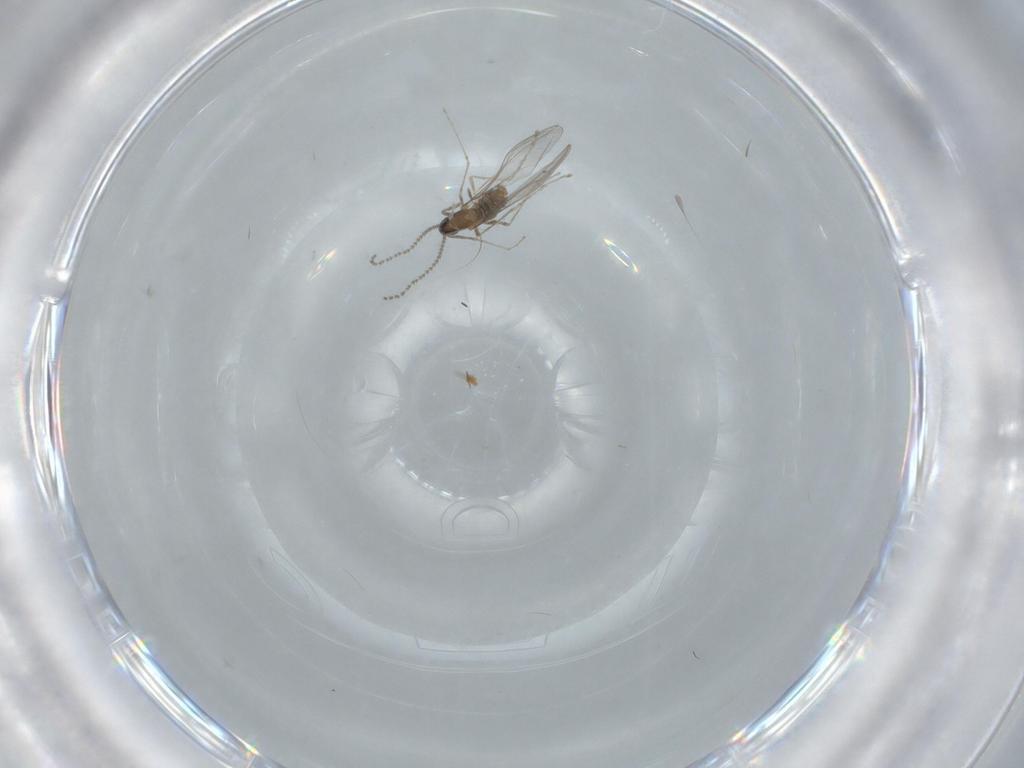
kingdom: Animalia
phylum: Arthropoda
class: Insecta
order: Diptera
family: Cecidomyiidae
